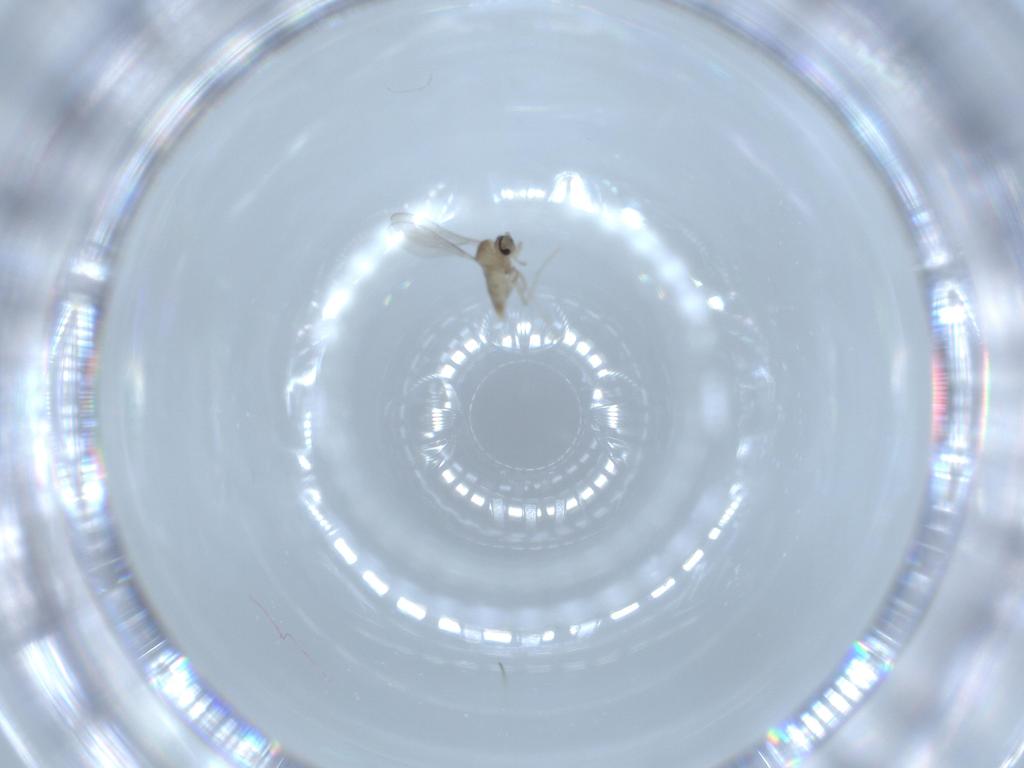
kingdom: Animalia
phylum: Arthropoda
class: Insecta
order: Diptera
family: Cecidomyiidae
